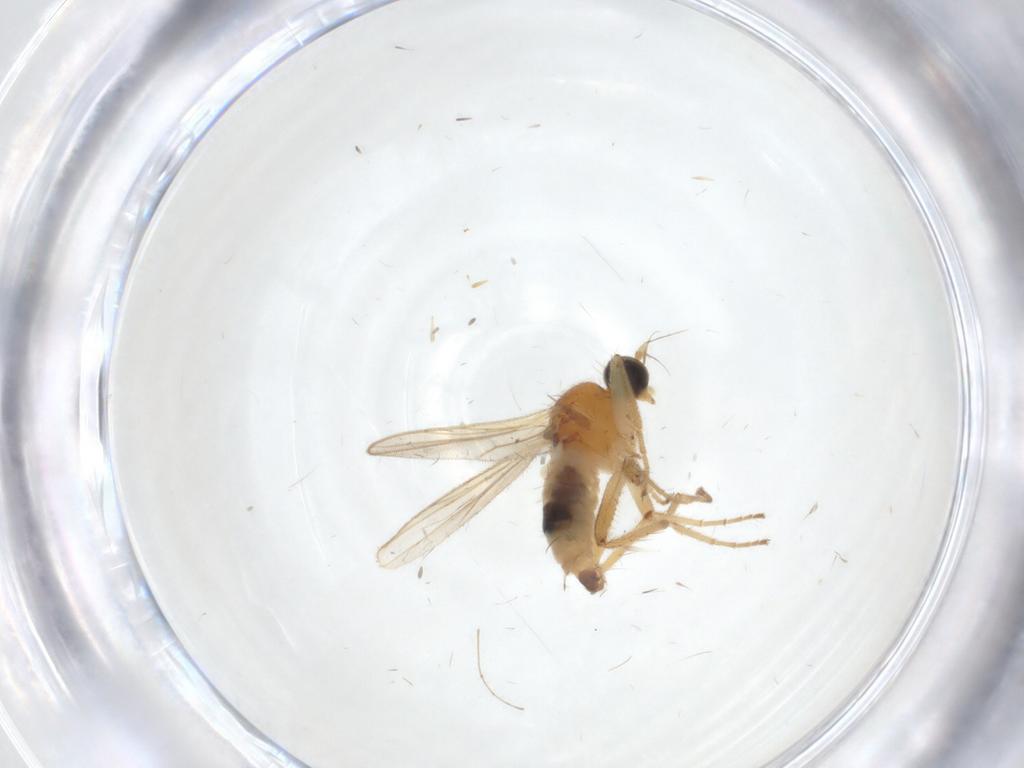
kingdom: Animalia
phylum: Arthropoda
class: Insecta
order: Diptera
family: Hybotidae
